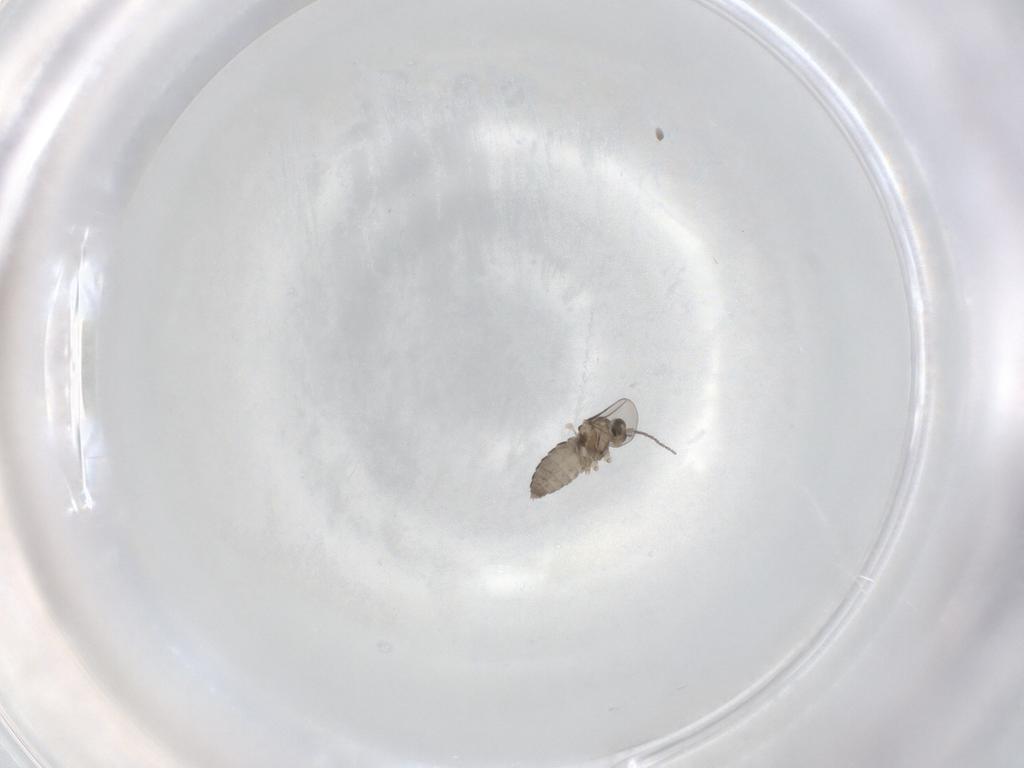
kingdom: Animalia
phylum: Arthropoda
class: Insecta
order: Diptera
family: Cecidomyiidae
